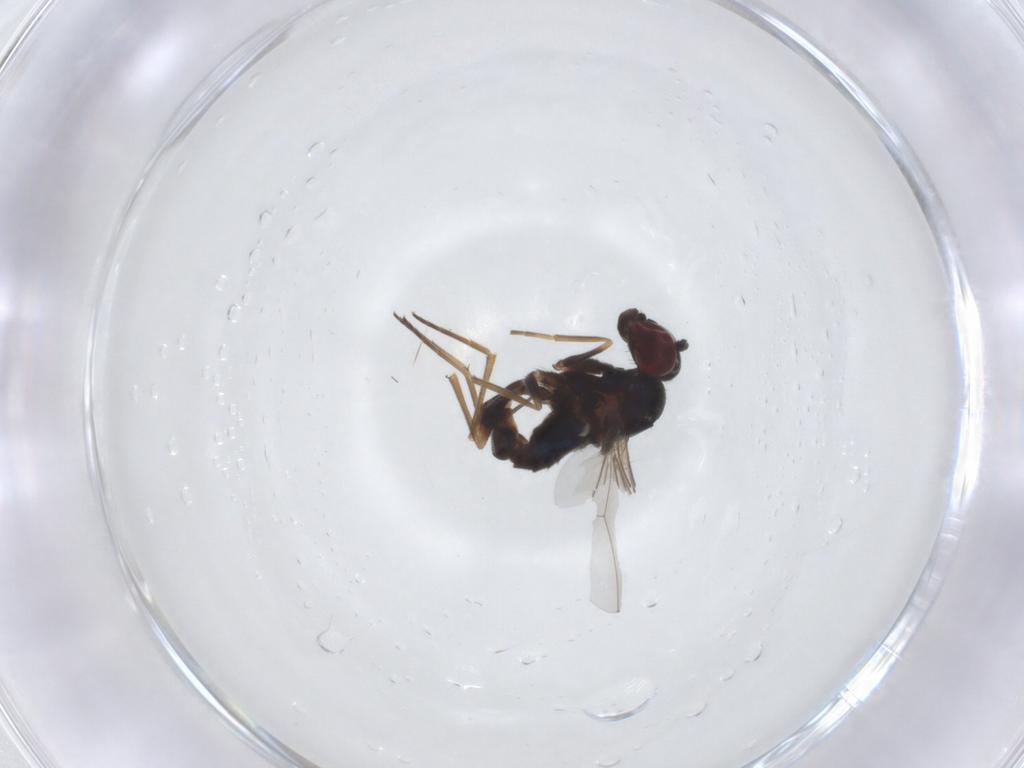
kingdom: Animalia
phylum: Arthropoda
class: Insecta
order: Diptera
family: Dolichopodidae
